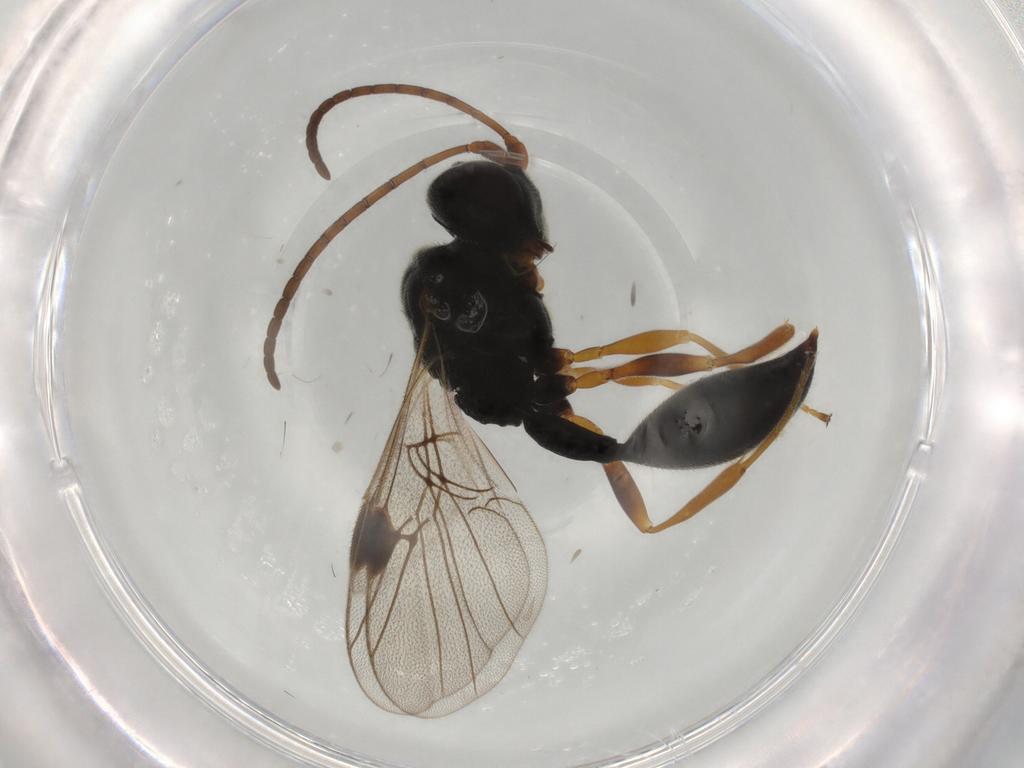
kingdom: Animalia
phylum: Arthropoda
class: Insecta
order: Hymenoptera
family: Heloridae
